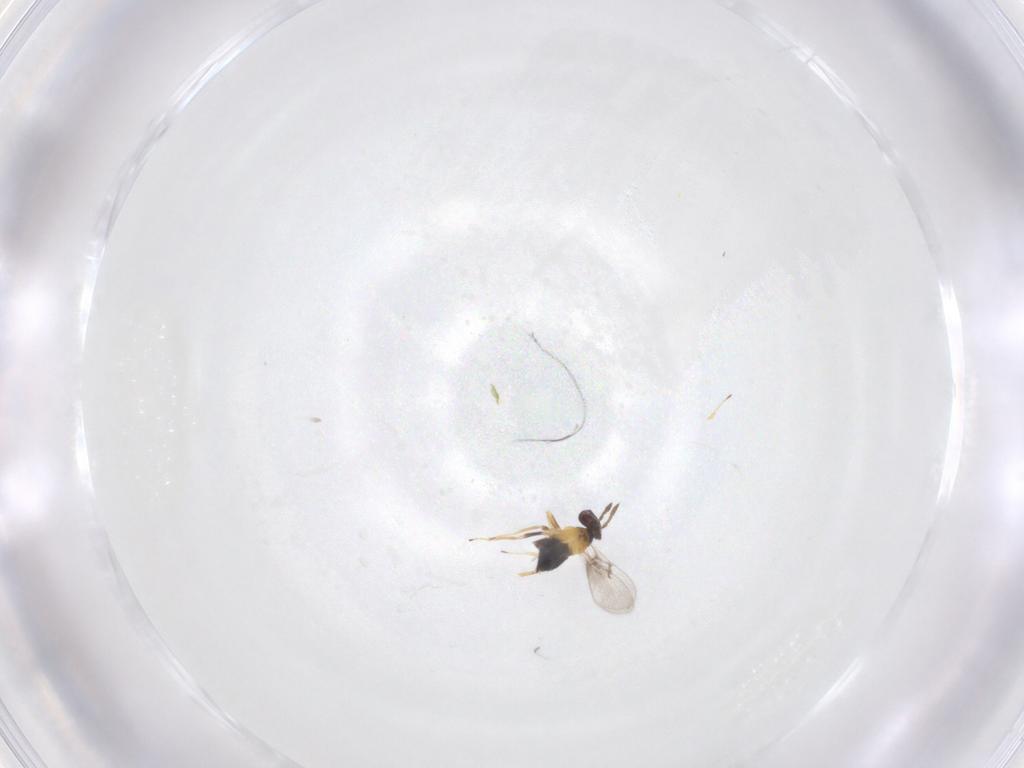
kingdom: Animalia
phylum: Arthropoda
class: Insecta
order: Hymenoptera
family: Trichogrammatidae
